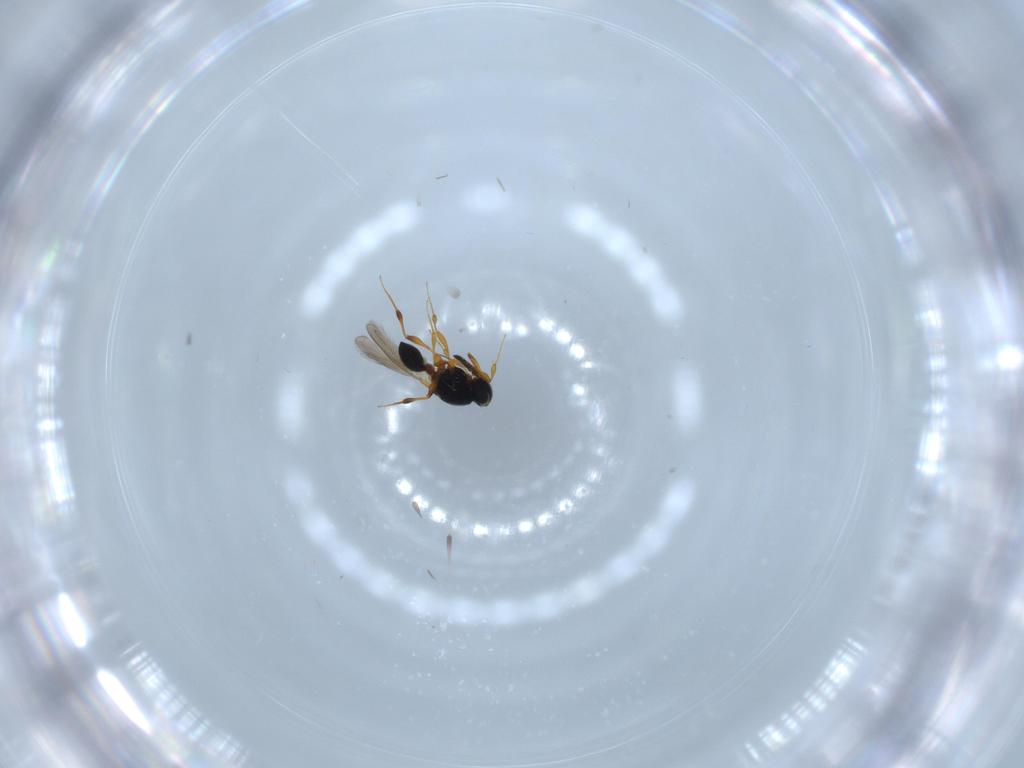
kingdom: Animalia
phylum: Arthropoda
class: Insecta
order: Hymenoptera
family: Platygastridae
